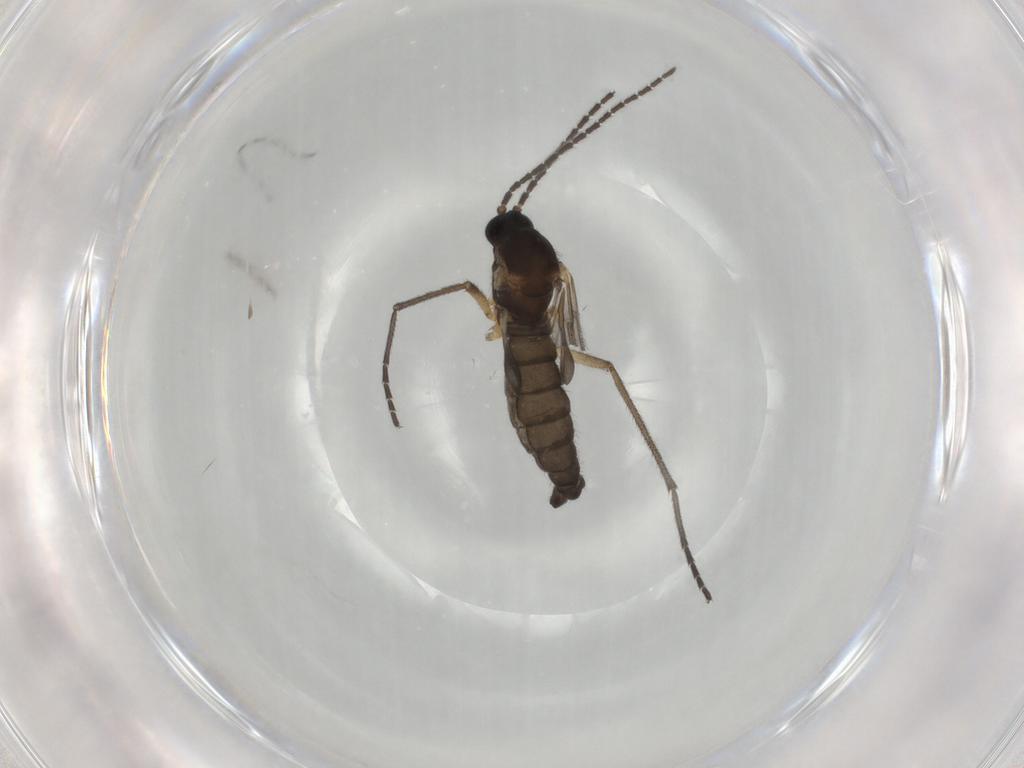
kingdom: Animalia
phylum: Arthropoda
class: Insecta
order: Diptera
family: Sciaridae
